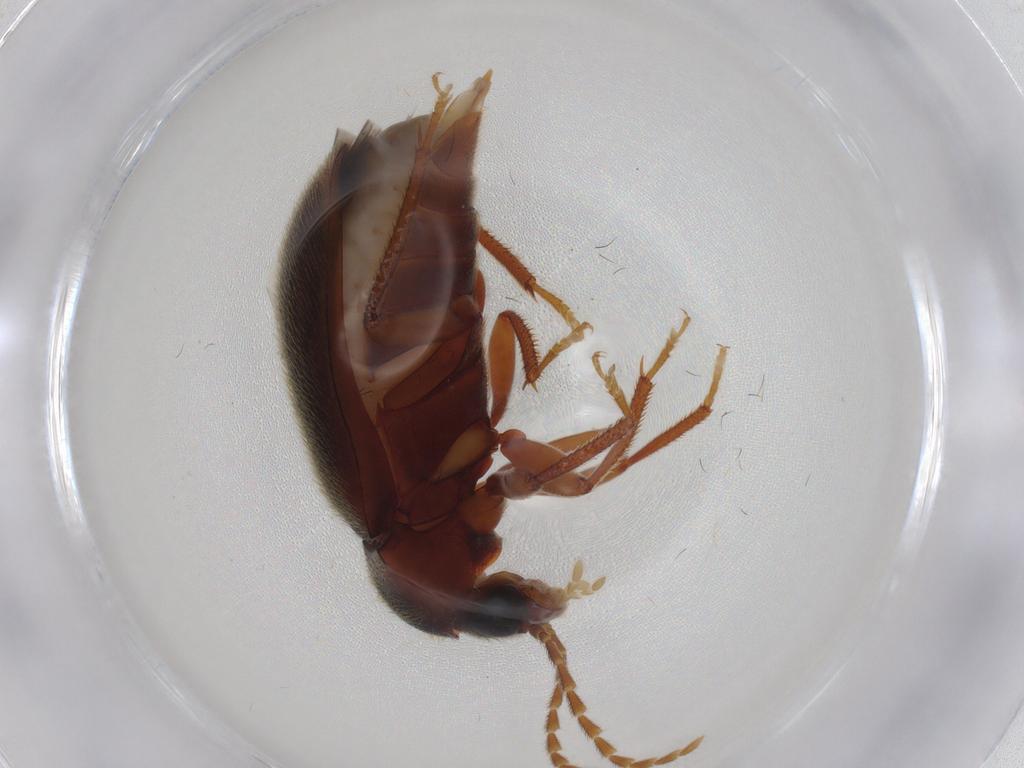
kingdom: Animalia
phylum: Arthropoda
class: Insecta
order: Coleoptera
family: Ptilodactylidae
